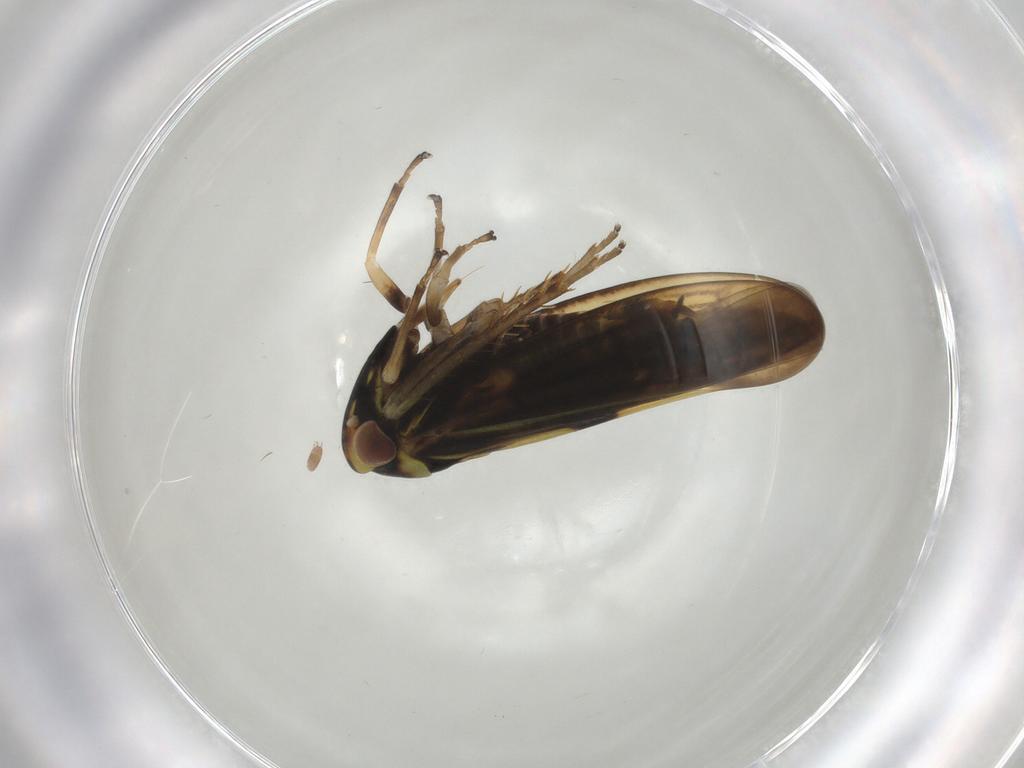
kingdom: Animalia
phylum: Arthropoda
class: Insecta
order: Hemiptera
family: Cicadellidae
